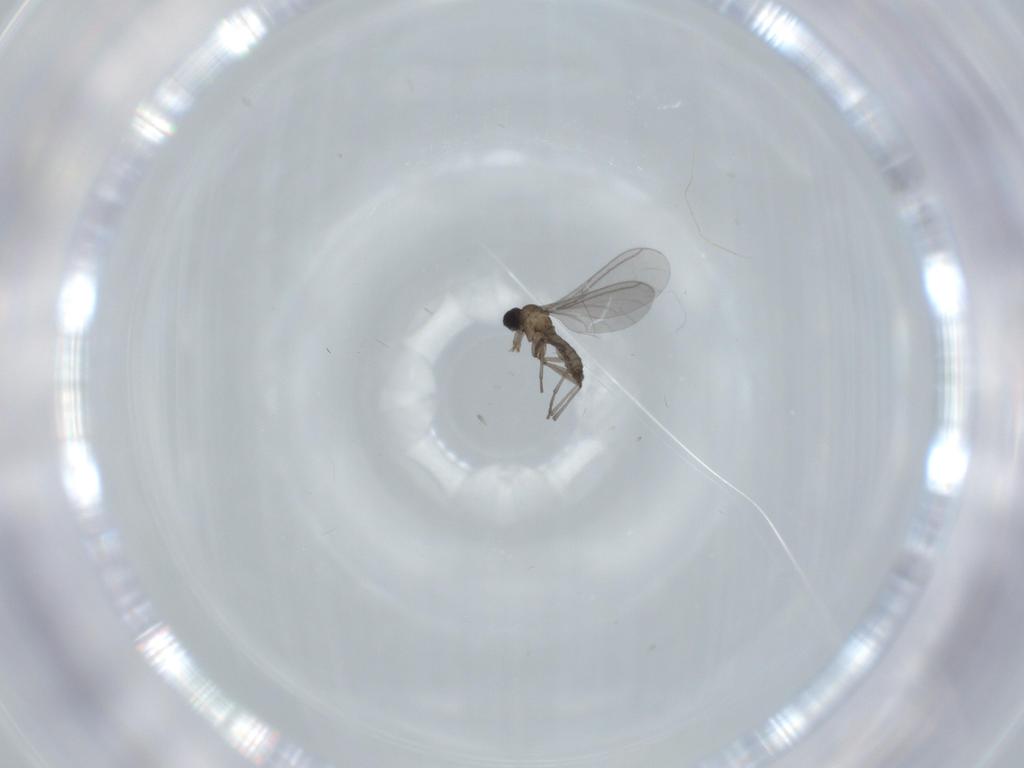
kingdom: Animalia
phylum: Arthropoda
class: Insecta
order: Diptera
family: Sciaridae
